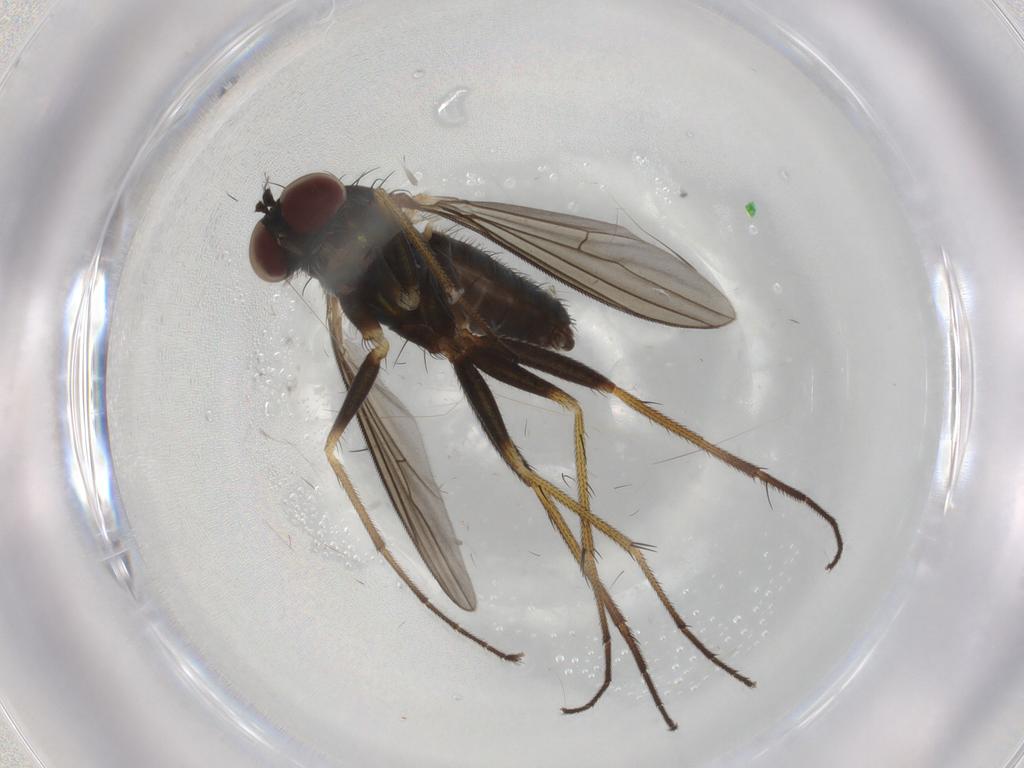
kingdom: Animalia
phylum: Arthropoda
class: Insecta
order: Diptera
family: Dolichopodidae
